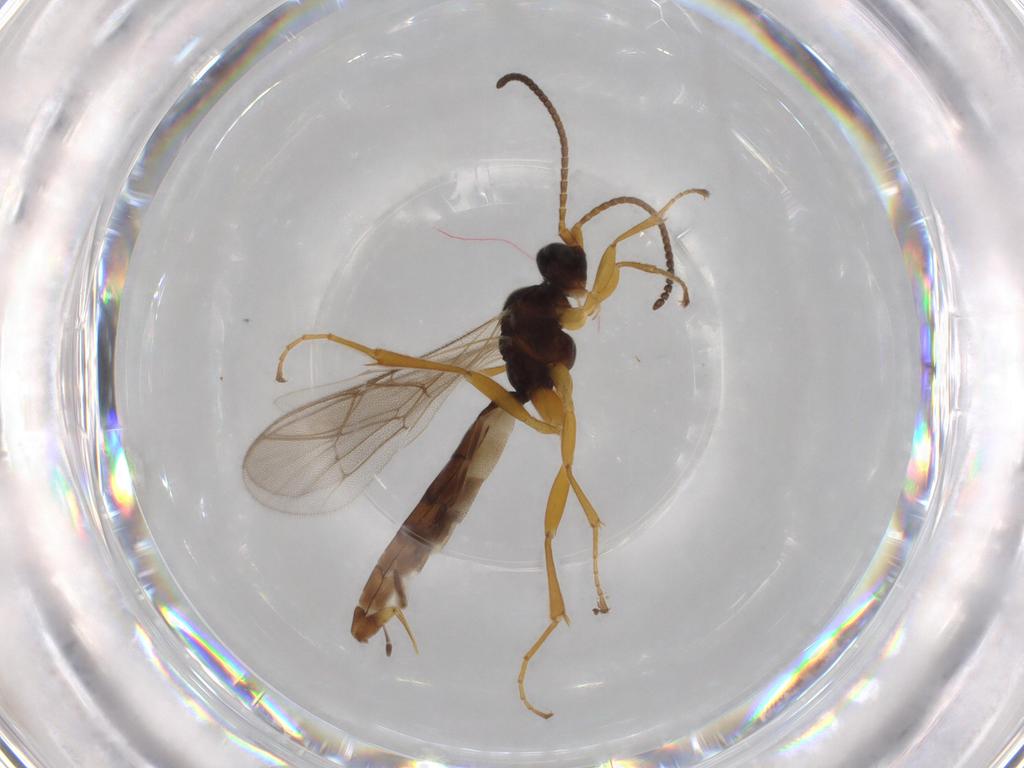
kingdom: Animalia
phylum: Arthropoda
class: Insecta
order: Hymenoptera
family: Ichneumonidae
